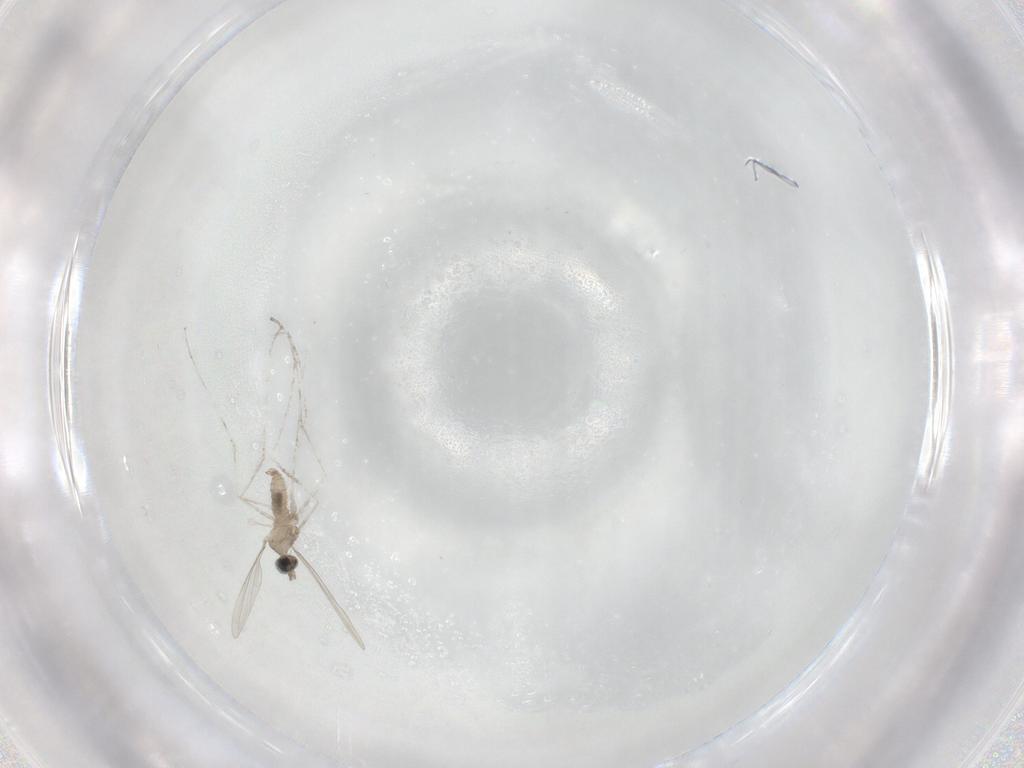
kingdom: Animalia
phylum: Arthropoda
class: Insecta
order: Diptera
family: Cecidomyiidae
